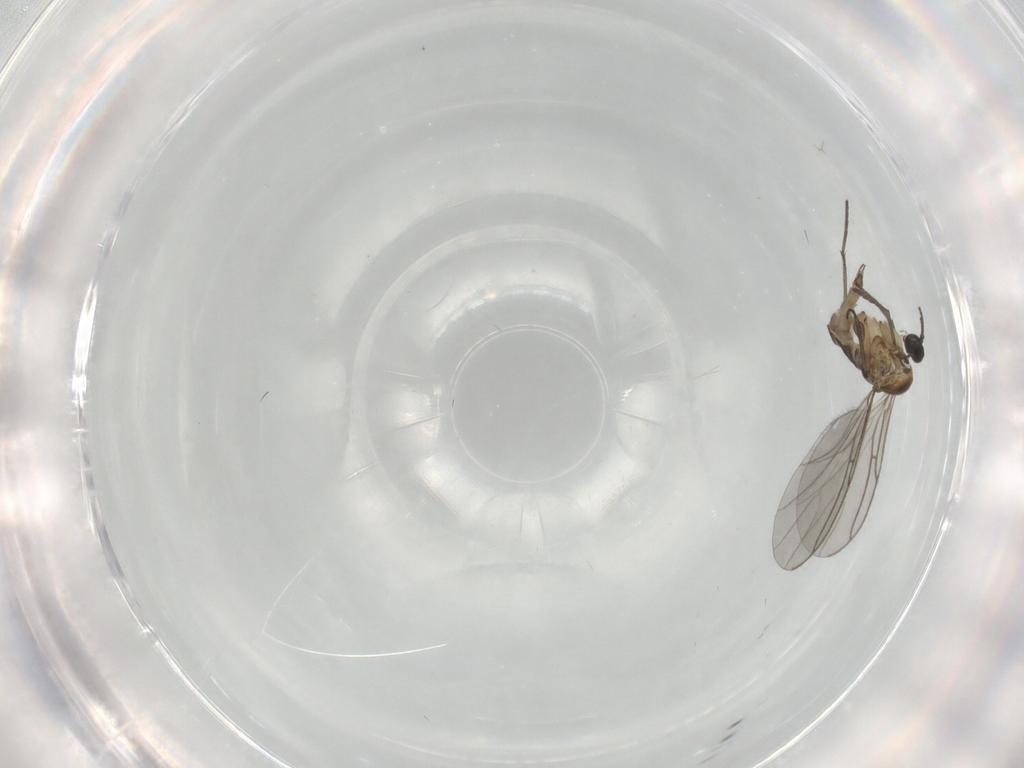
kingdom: Animalia
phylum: Arthropoda
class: Insecta
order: Diptera
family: Sciaridae
